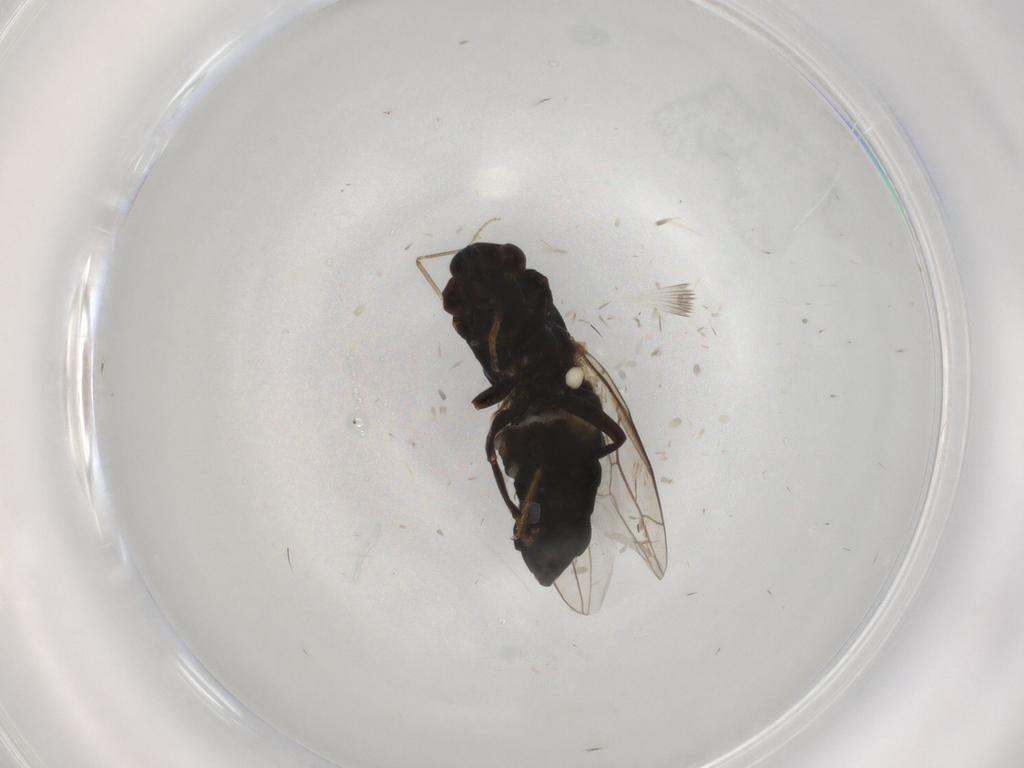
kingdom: Animalia
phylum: Arthropoda
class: Insecta
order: Diptera
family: Scenopinidae
